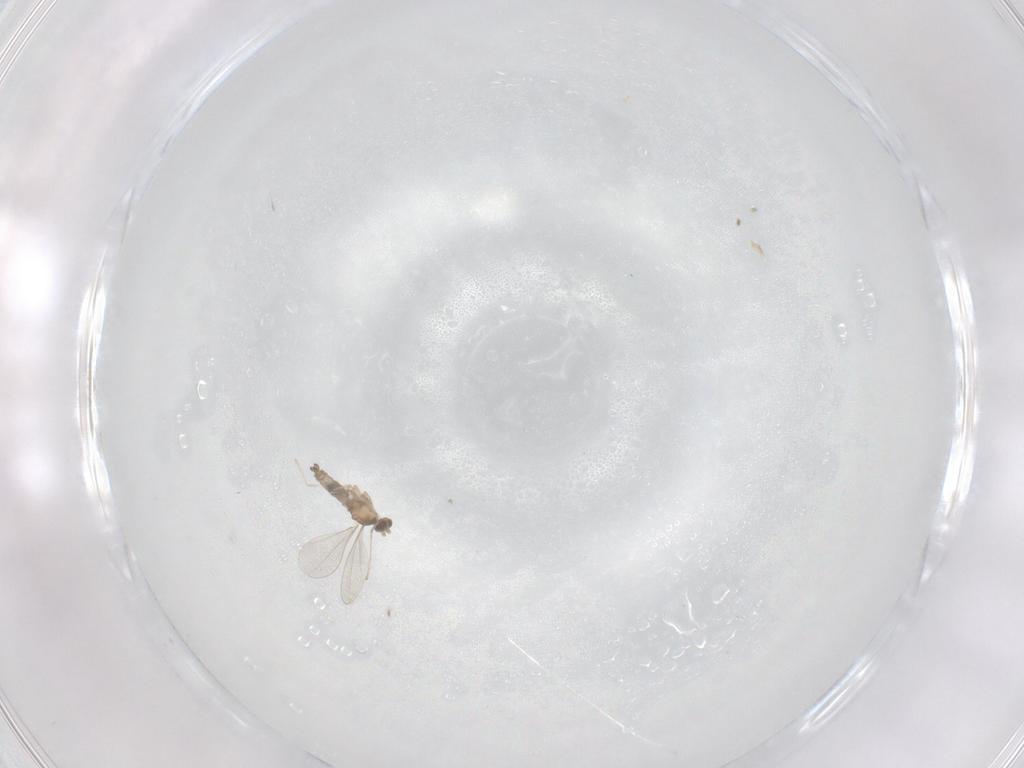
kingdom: Animalia
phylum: Arthropoda
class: Insecta
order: Diptera
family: Cecidomyiidae
